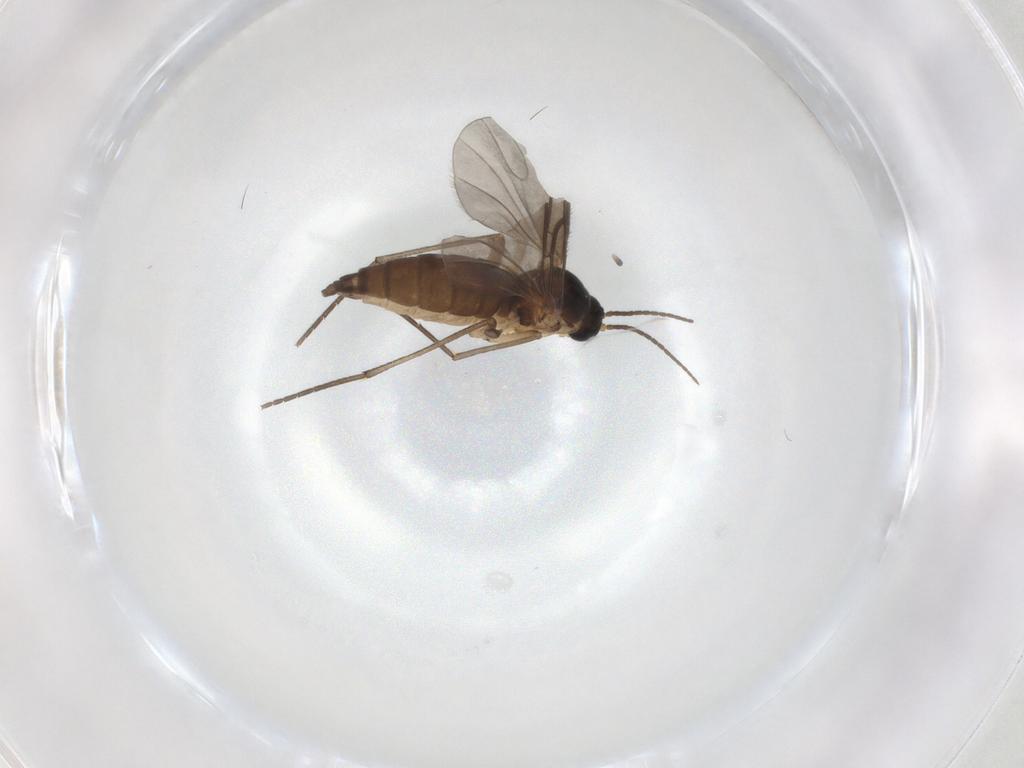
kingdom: Animalia
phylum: Arthropoda
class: Insecta
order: Diptera
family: Sciaridae
